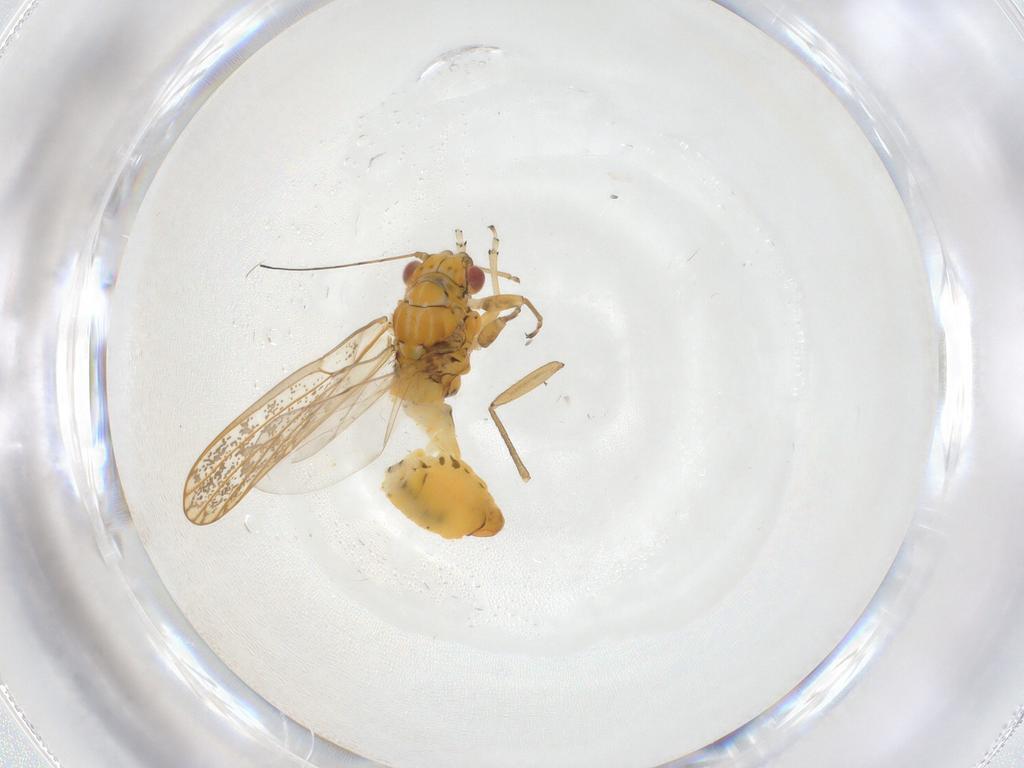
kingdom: Animalia
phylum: Arthropoda
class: Insecta
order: Hemiptera
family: Psyllidae
